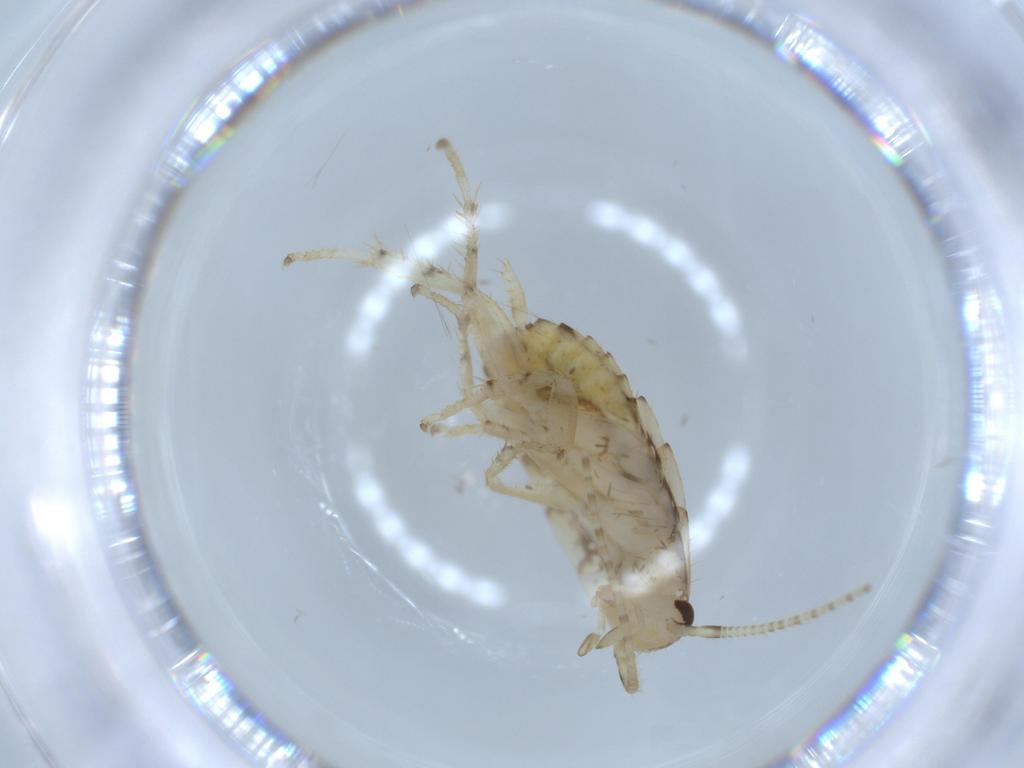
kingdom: Animalia
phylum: Arthropoda
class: Insecta
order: Blattodea
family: Ectobiidae
